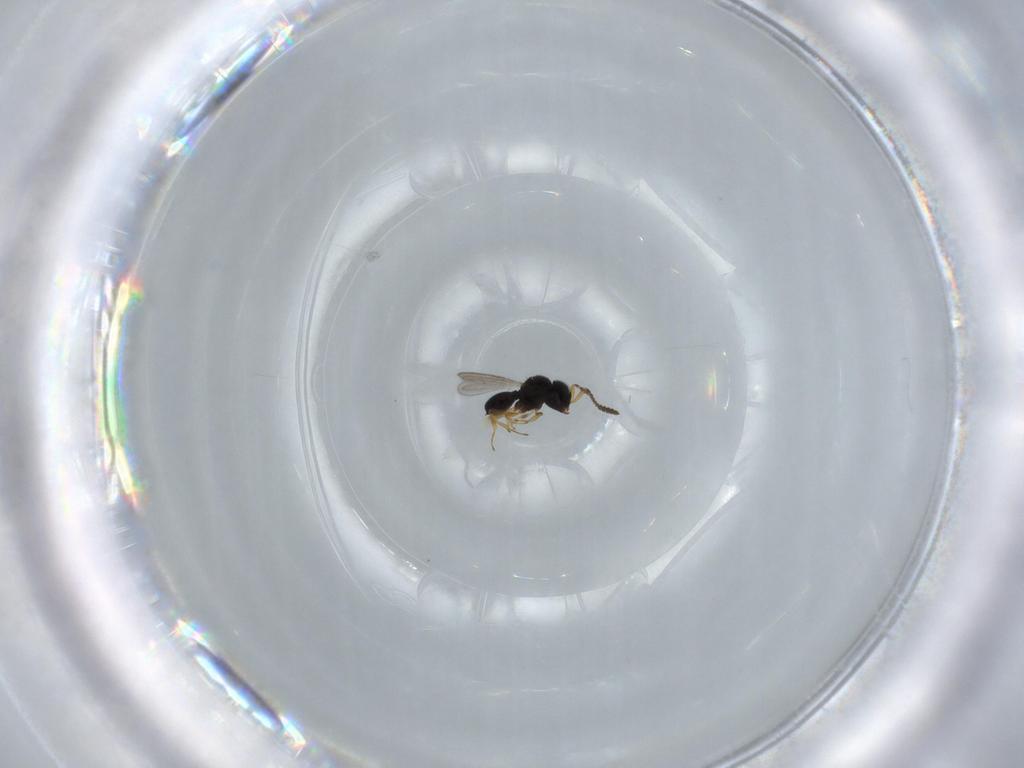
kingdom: Animalia
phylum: Arthropoda
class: Insecta
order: Hymenoptera
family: Scelionidae
